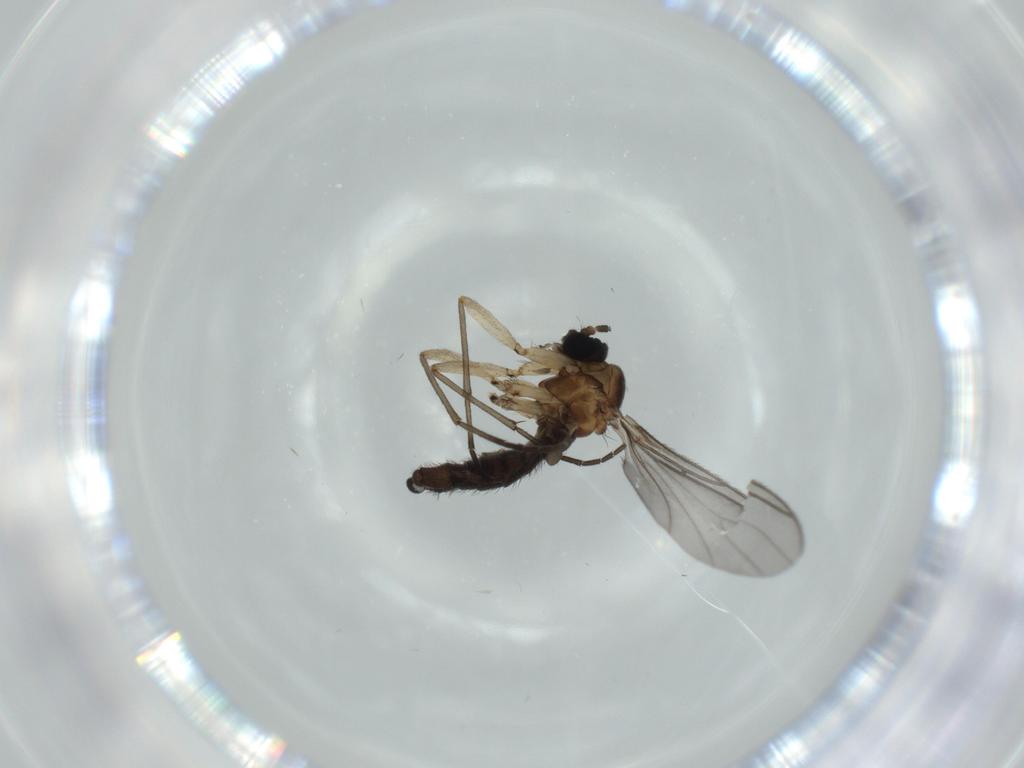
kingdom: Animalia
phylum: Arthropoda
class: Insecta
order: Diptera
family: Sciaridae
